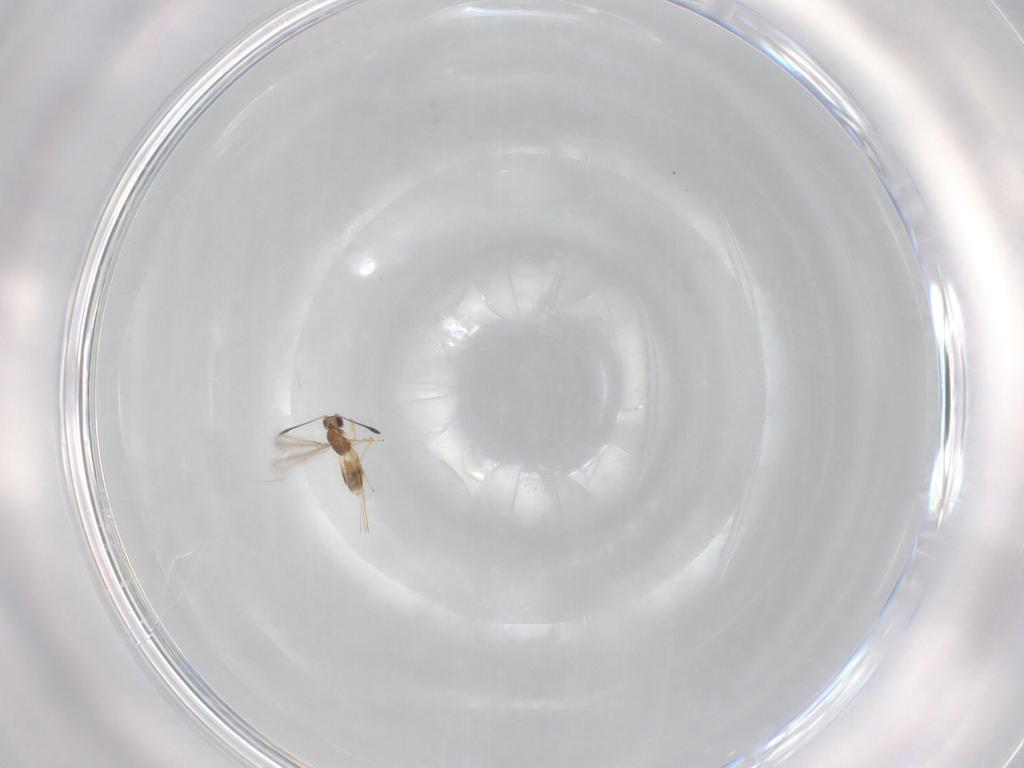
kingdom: Animalia
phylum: Arthropoda
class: Insecta
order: Hymenoptera
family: Mymaridae
